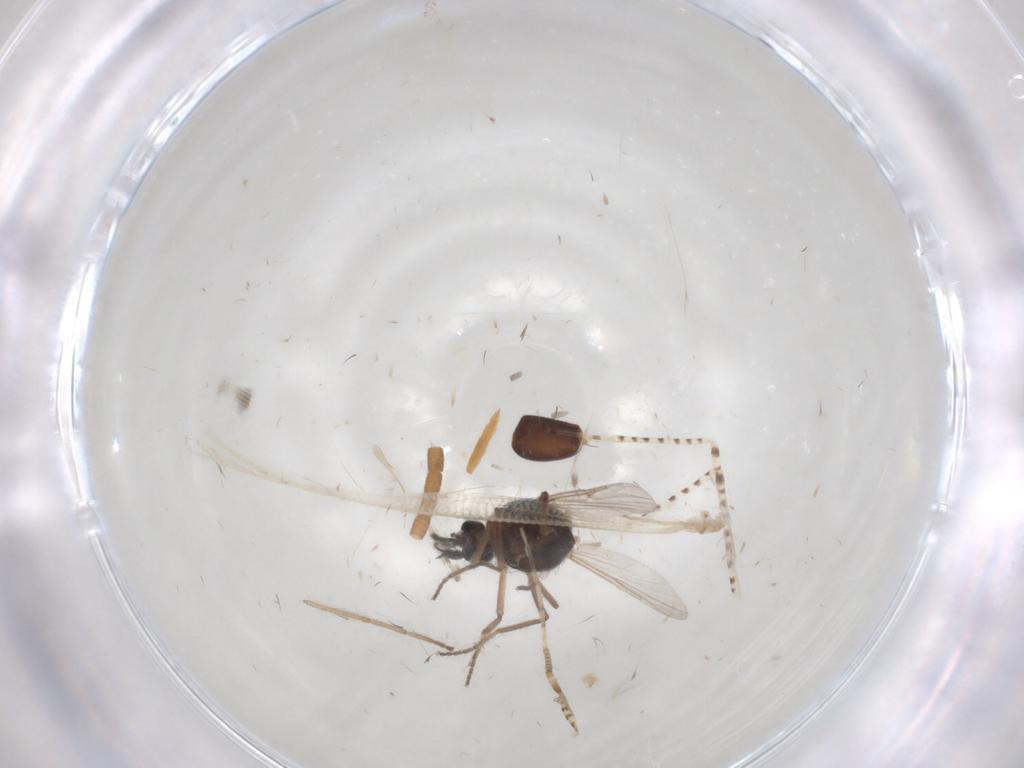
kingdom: Animalia
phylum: Arthropoda
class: Insecta
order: Diptera
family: Ceratopogonidae
